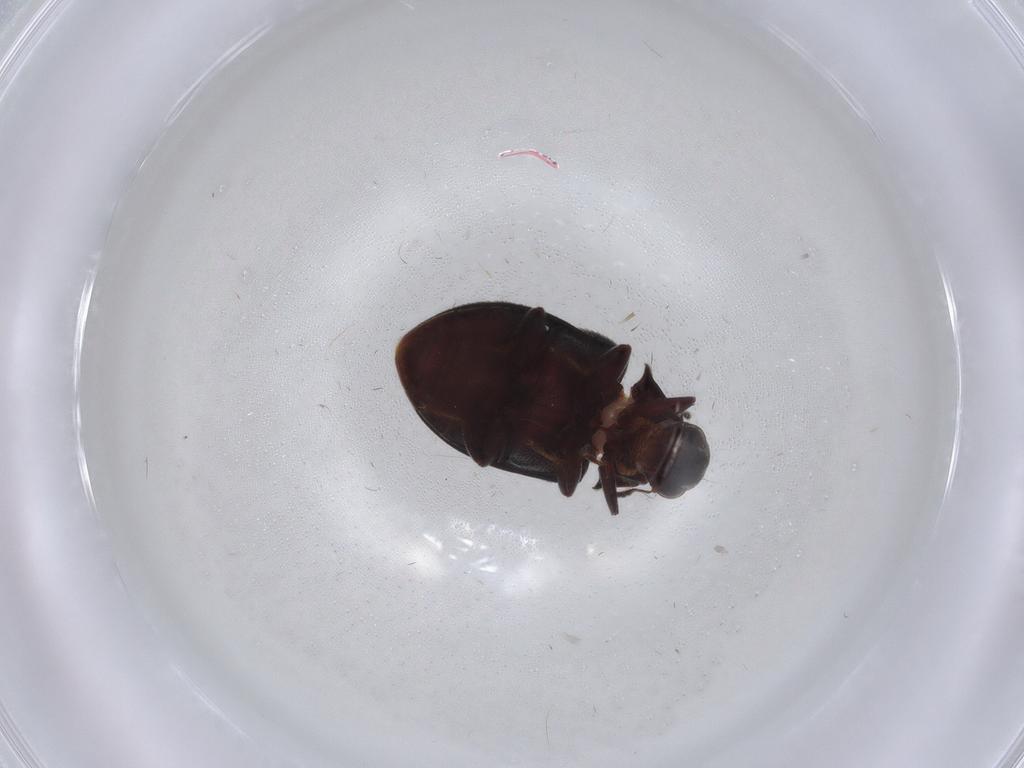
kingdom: Animalia
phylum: Arthropoda
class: Insecta
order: Coleoptera
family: Limnichidae
